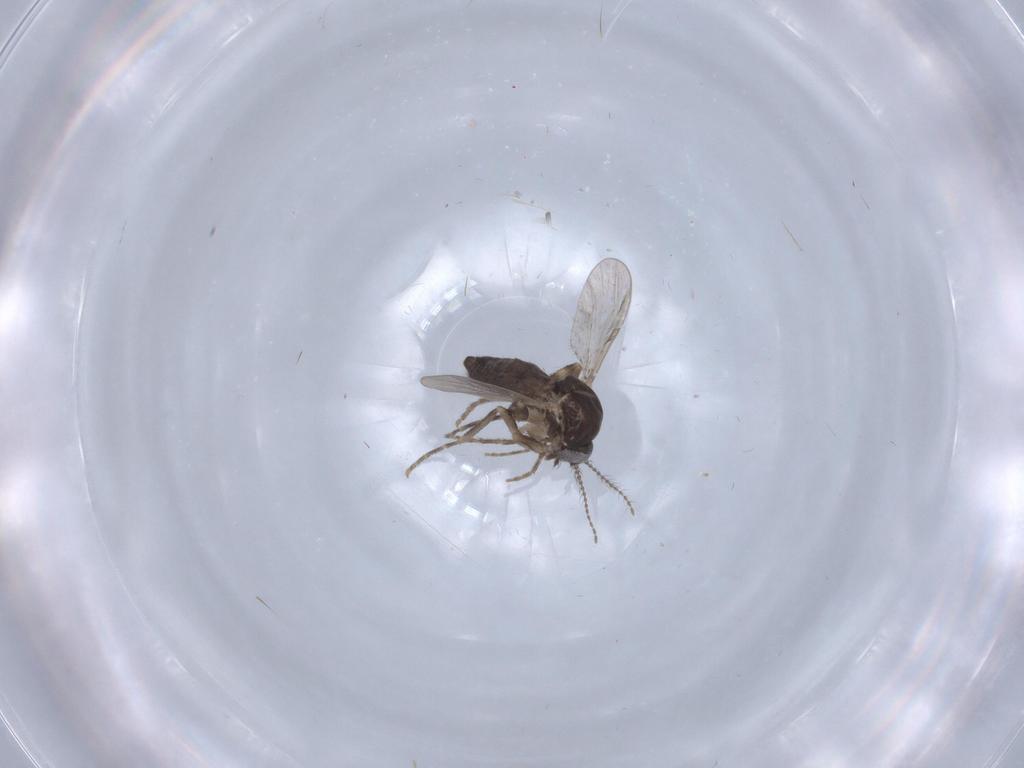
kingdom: Animalia
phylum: Arthropoda
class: Insecta
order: Diptera
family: Ceratopogonidae
